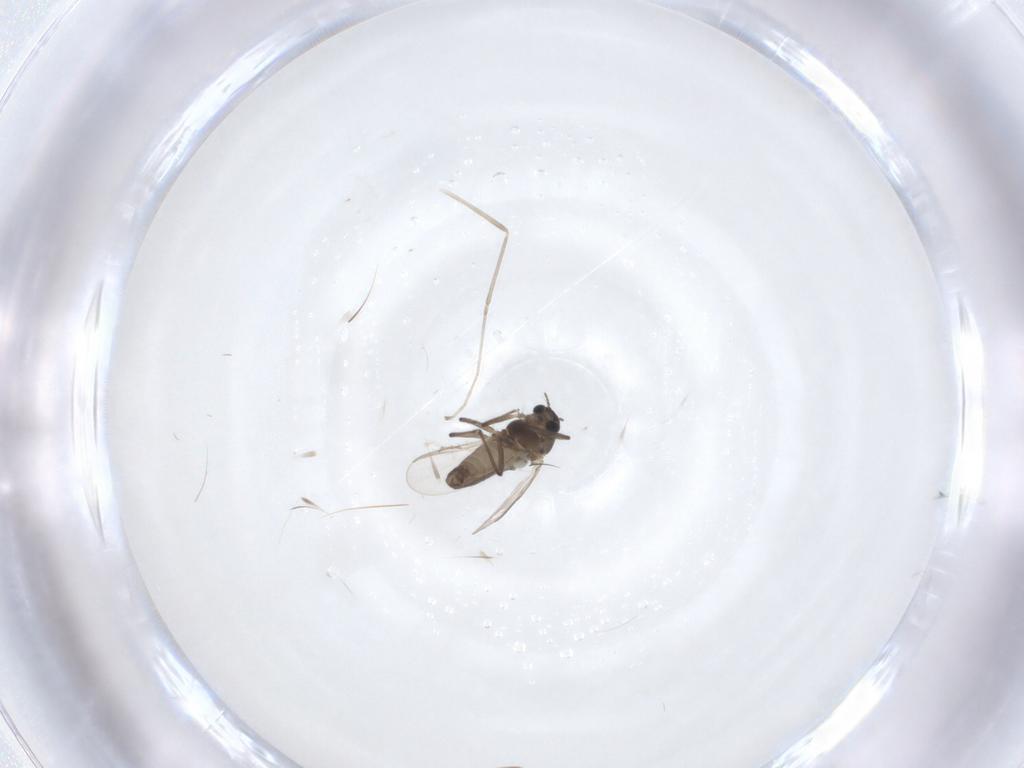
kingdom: Animalia
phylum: Arthropoda
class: Insecta
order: Diptera
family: Chironomidae
